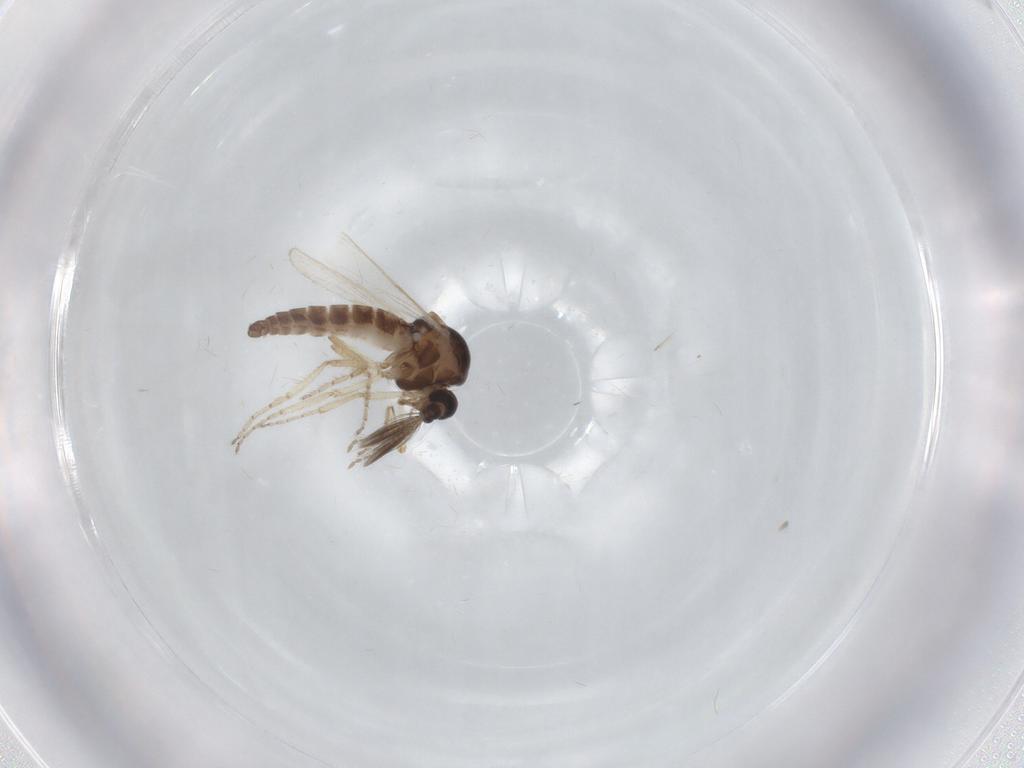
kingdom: Animalia
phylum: Arthropoda
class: Insecta
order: Diptera
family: Ceratopogonidae
